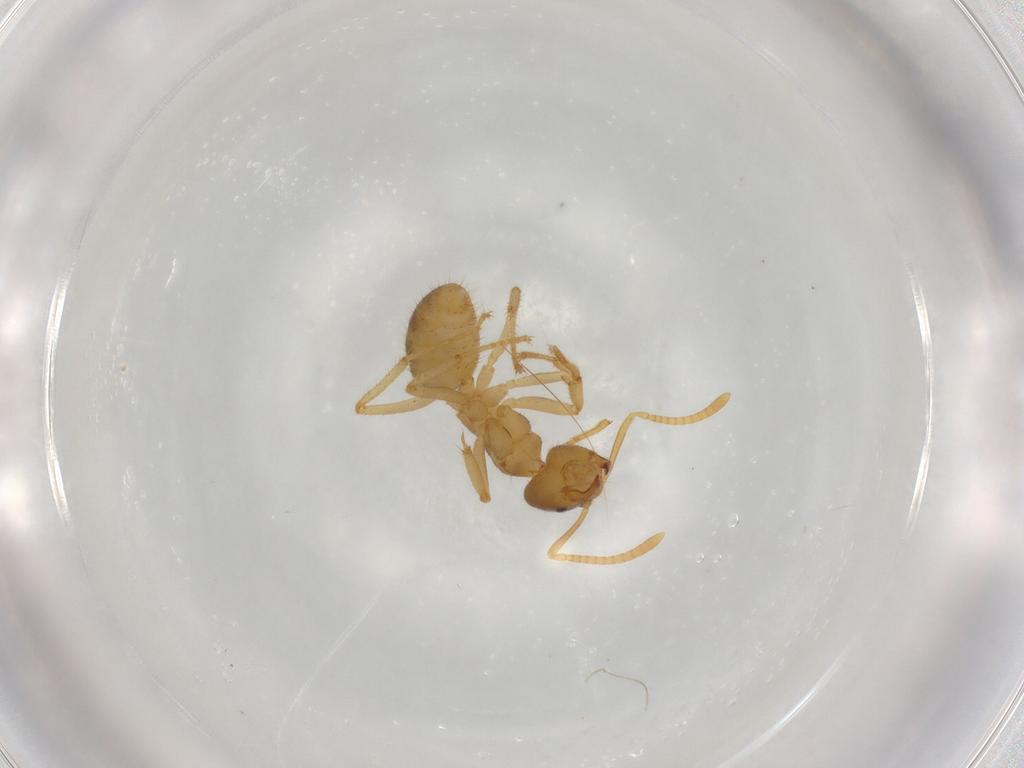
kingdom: Animalia
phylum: Arthropoda
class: Insecta
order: Hymenoptera
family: Formicidae
